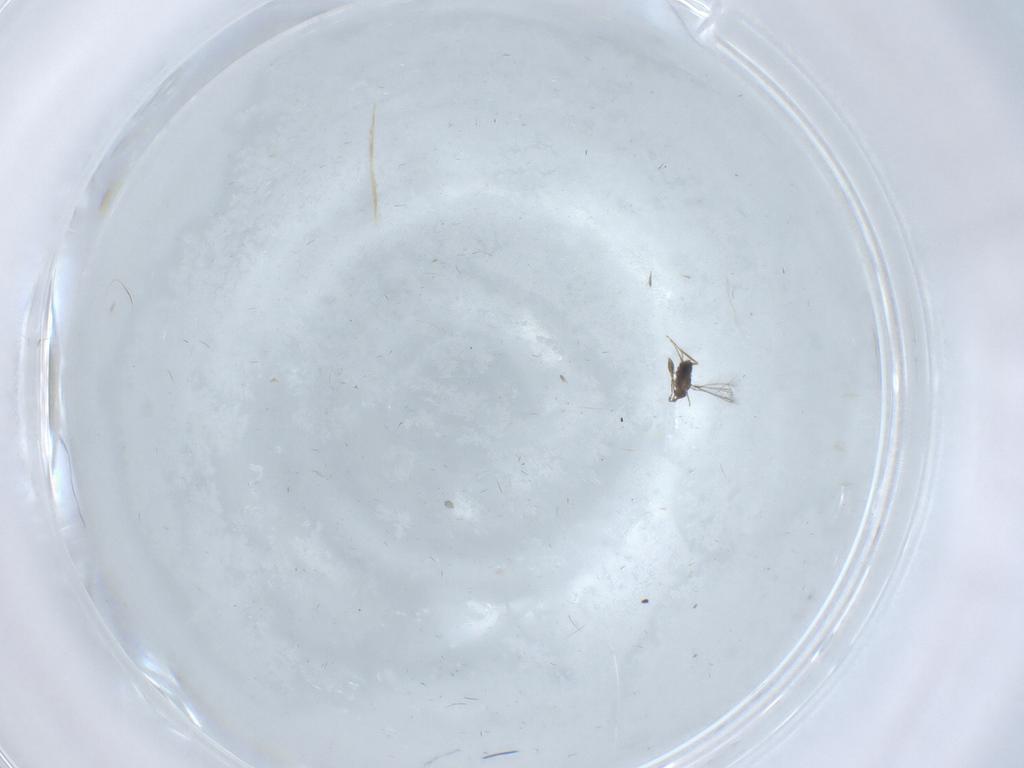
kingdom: Animalia
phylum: Arthropoda
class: Insecta
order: Hymenoptera
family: Mymaridae
